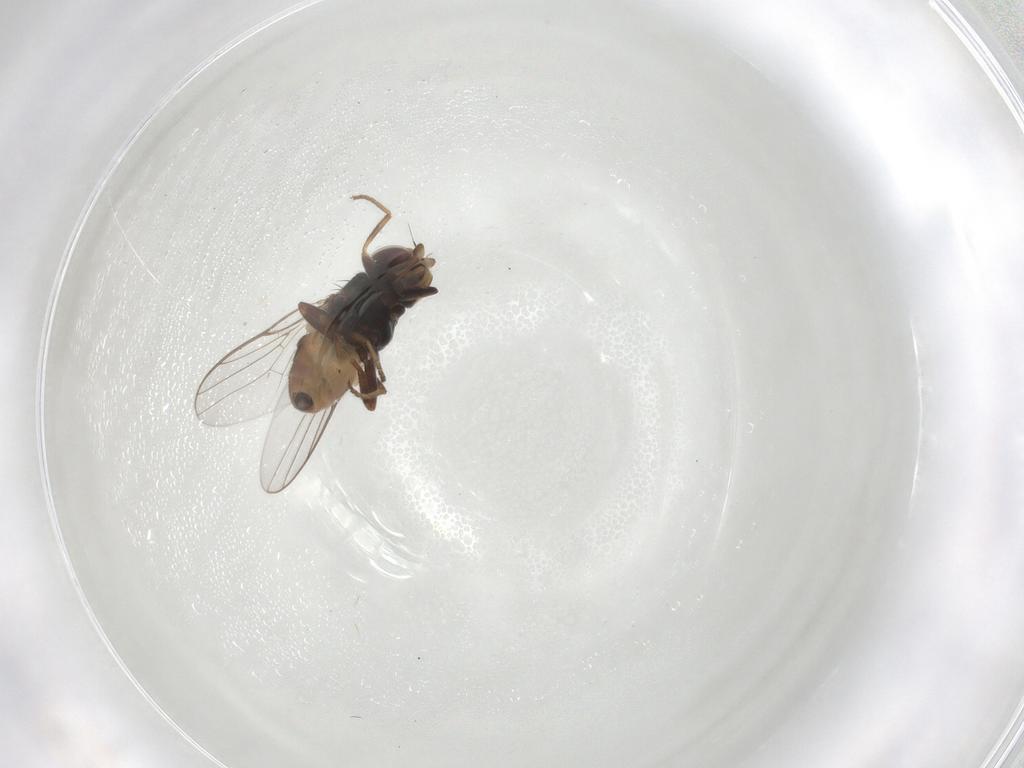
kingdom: Animalia
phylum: Arthropoda
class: Insecta
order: Diptera
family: Chloropidae
